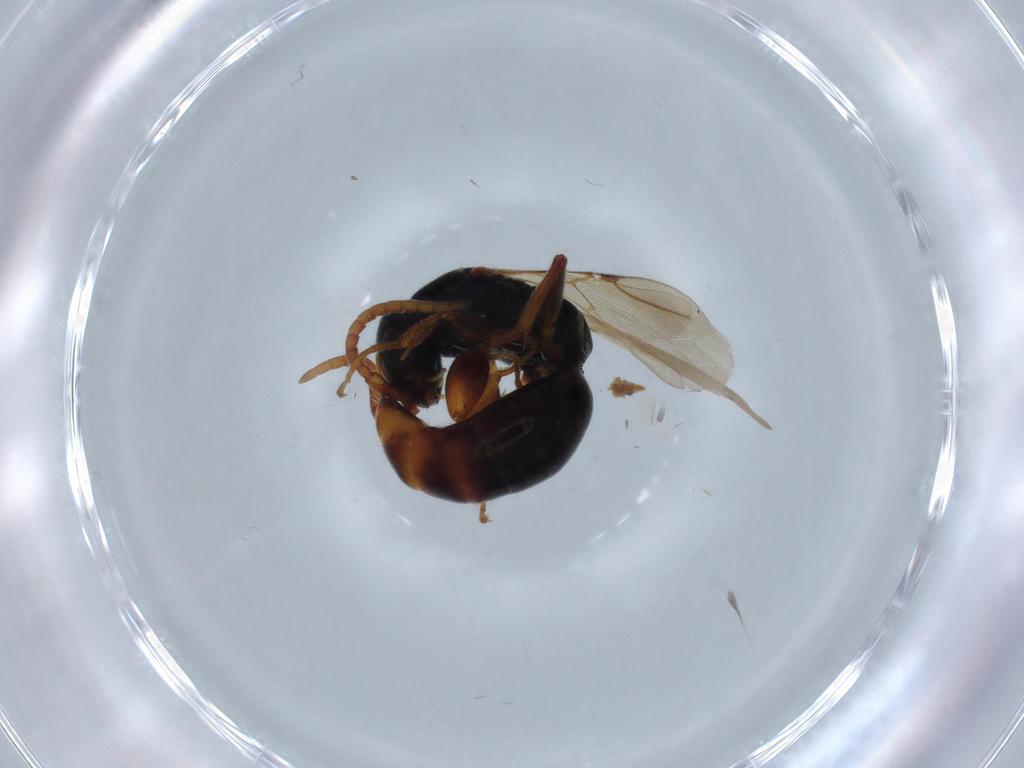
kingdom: Animalia
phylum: Arthropoda
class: Insecta
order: Hymenoptera
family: Bethylidae
